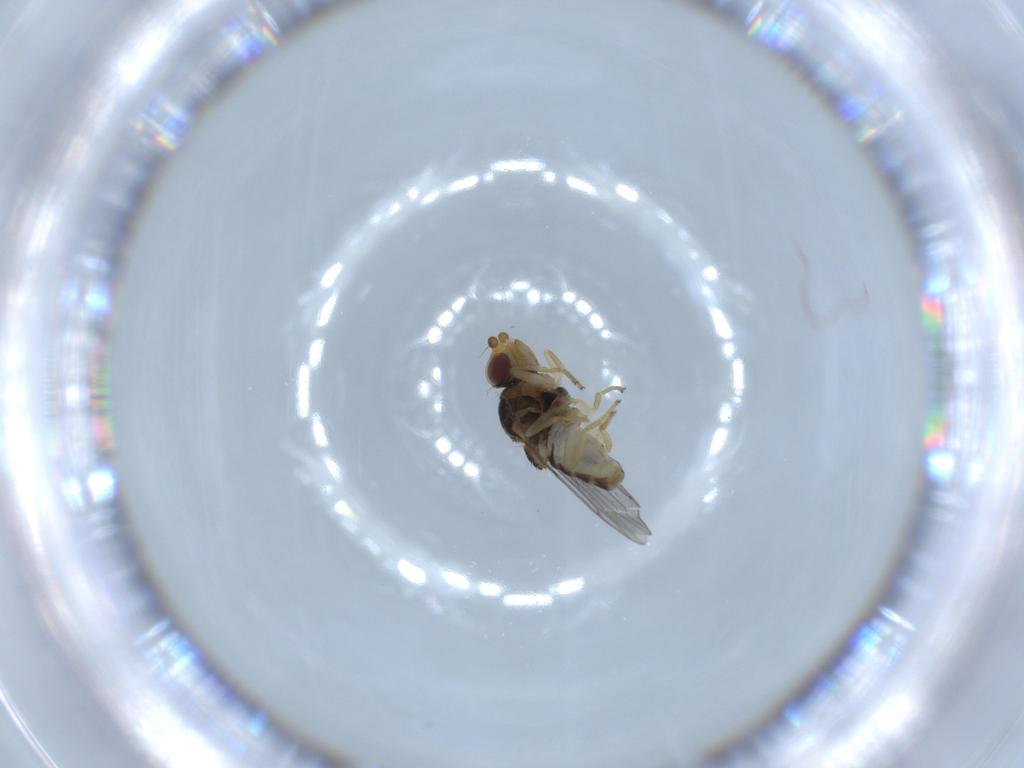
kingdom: Animalia
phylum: Arthropoda
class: Insecta
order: Diptera
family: Chloropidae
